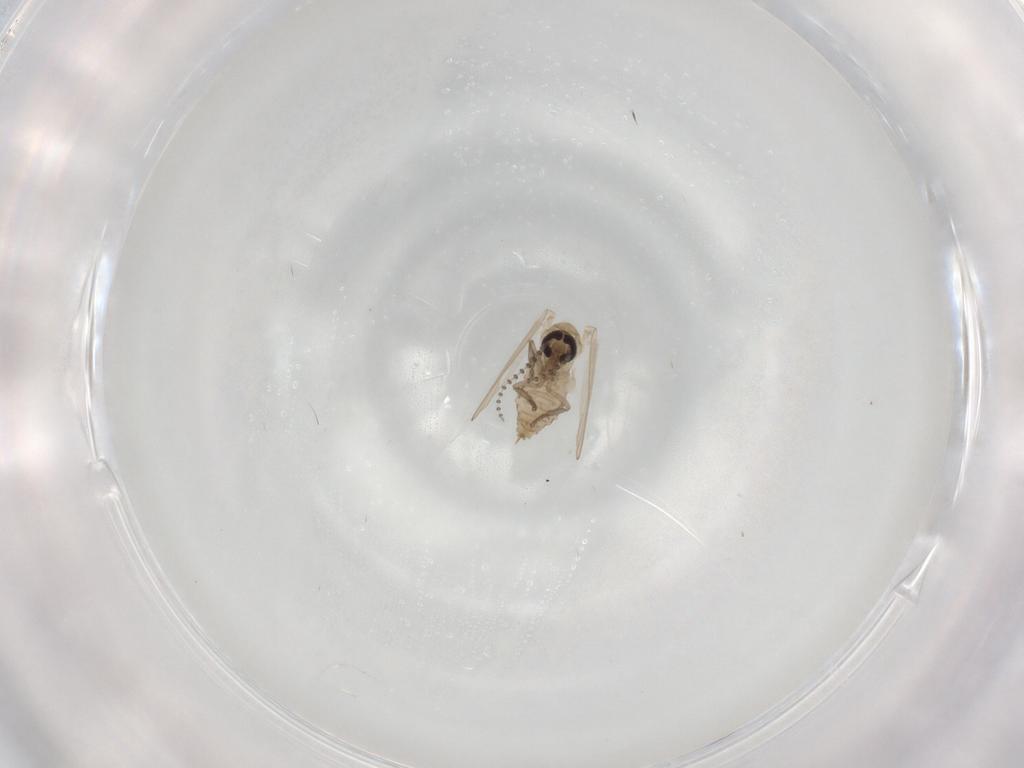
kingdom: Animalia
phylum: Arthropoda
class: Insecta
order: Diptera
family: Psychodidae
